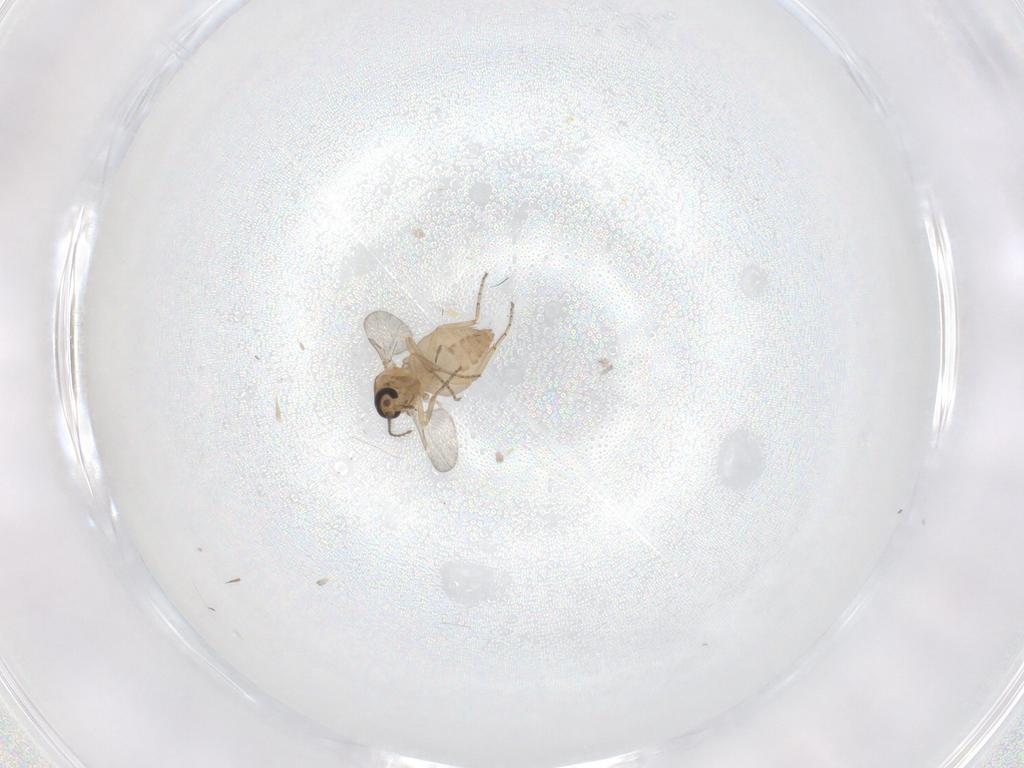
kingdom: Animalia
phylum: Arthropoda
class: Insecta
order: Diptera
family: Ceratopogonidae
